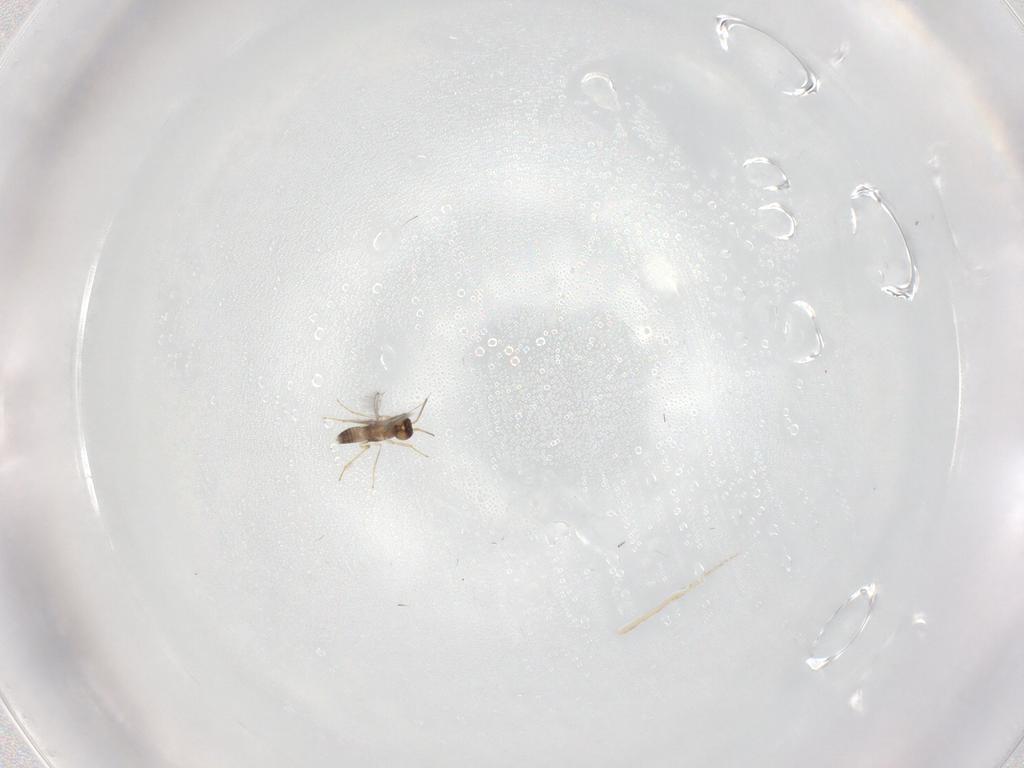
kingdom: Animalia
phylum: Arthropoda
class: Insecta
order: Hymenoptera
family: Mymaridae
